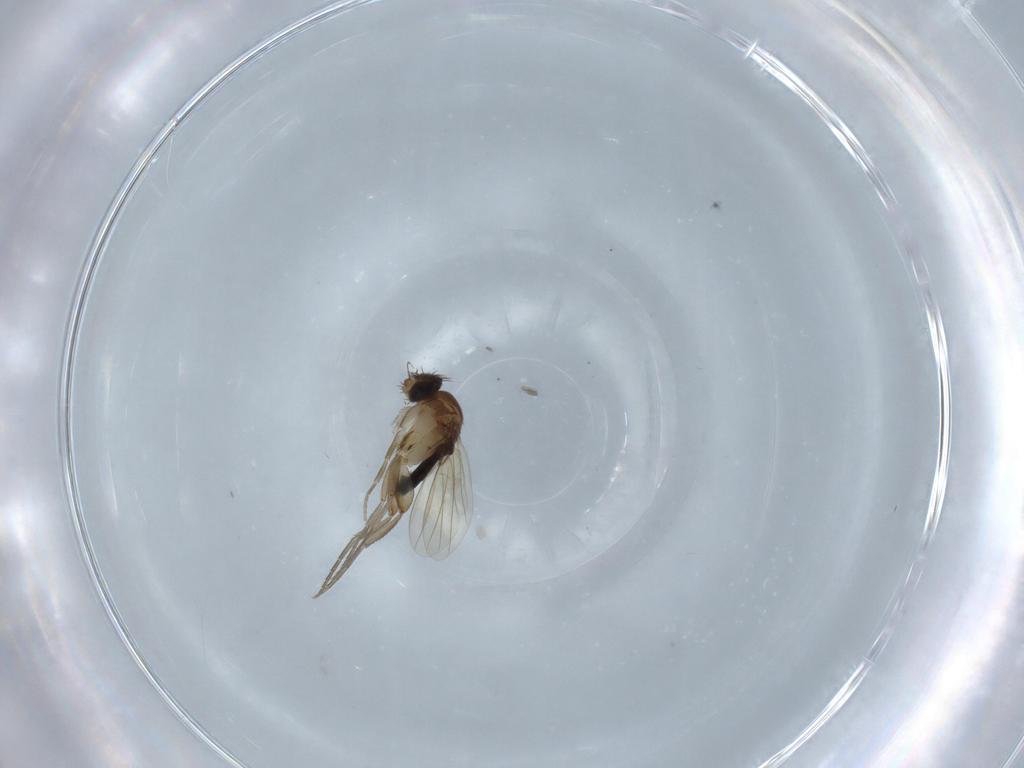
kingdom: Animalia
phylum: Arthropoda
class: Insecta
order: Diptera
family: Phoridae
